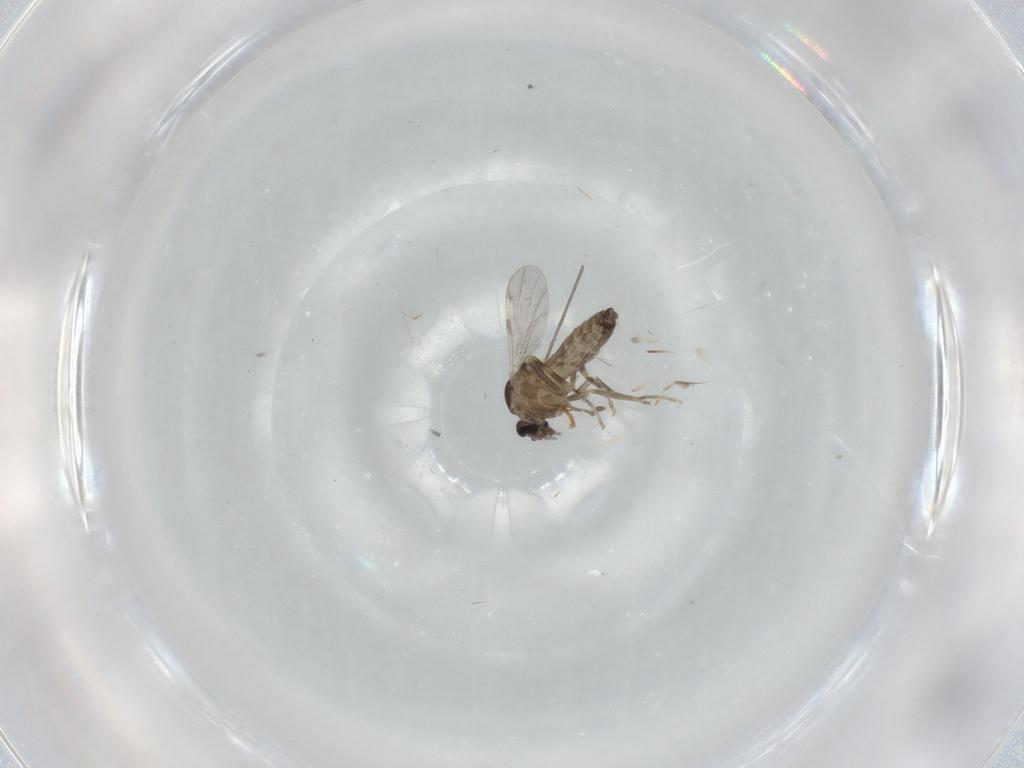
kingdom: Animalia
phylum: Arthropoda
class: Insecta
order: Diptera
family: Ceratopogonidae
